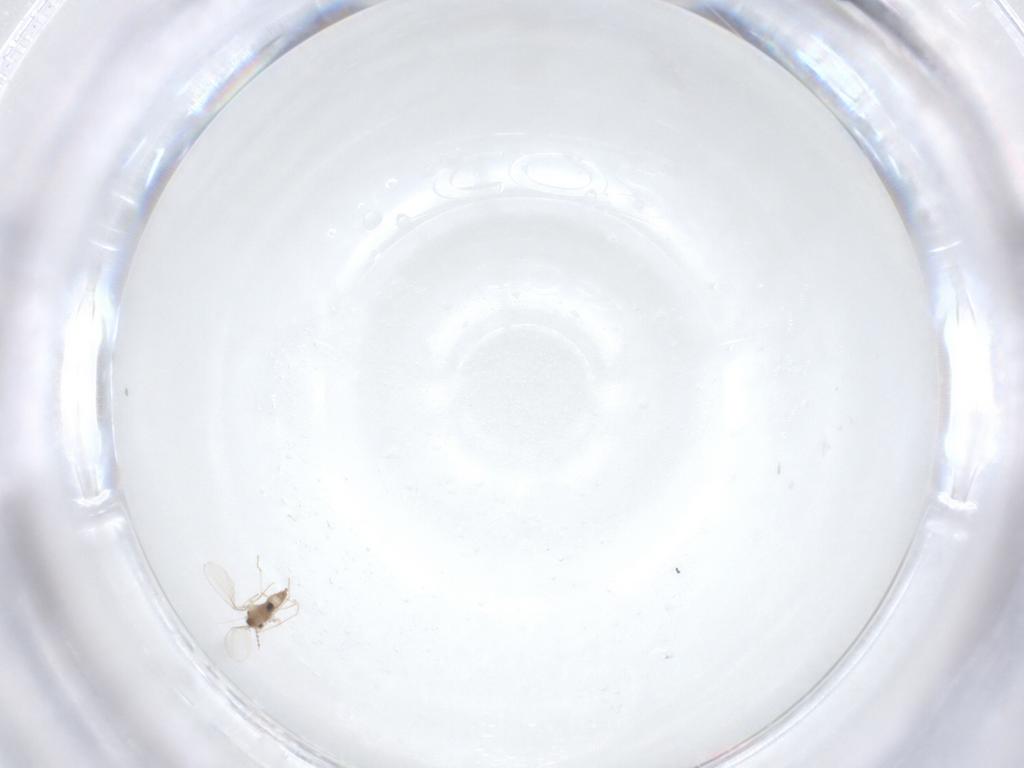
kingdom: Animalia
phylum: Arthropoda
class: Insecta
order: Diptera
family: Cecidomyiidae
